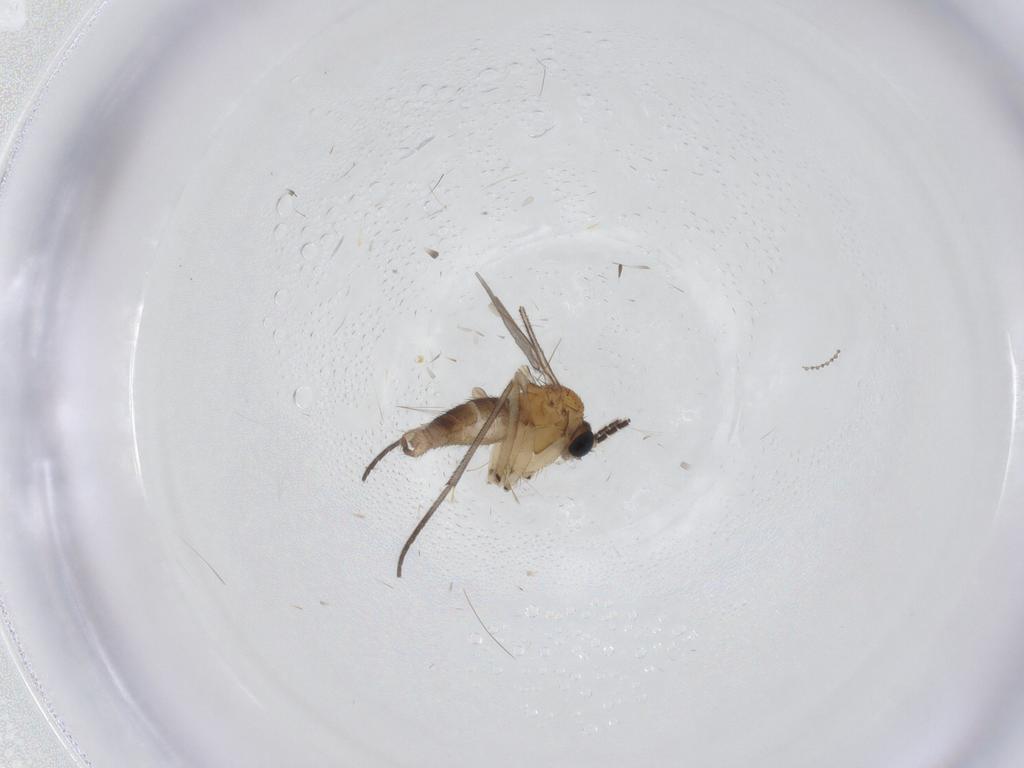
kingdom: Animalia
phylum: Arthropoda
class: Insecta
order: Diptera
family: Sciaridae
